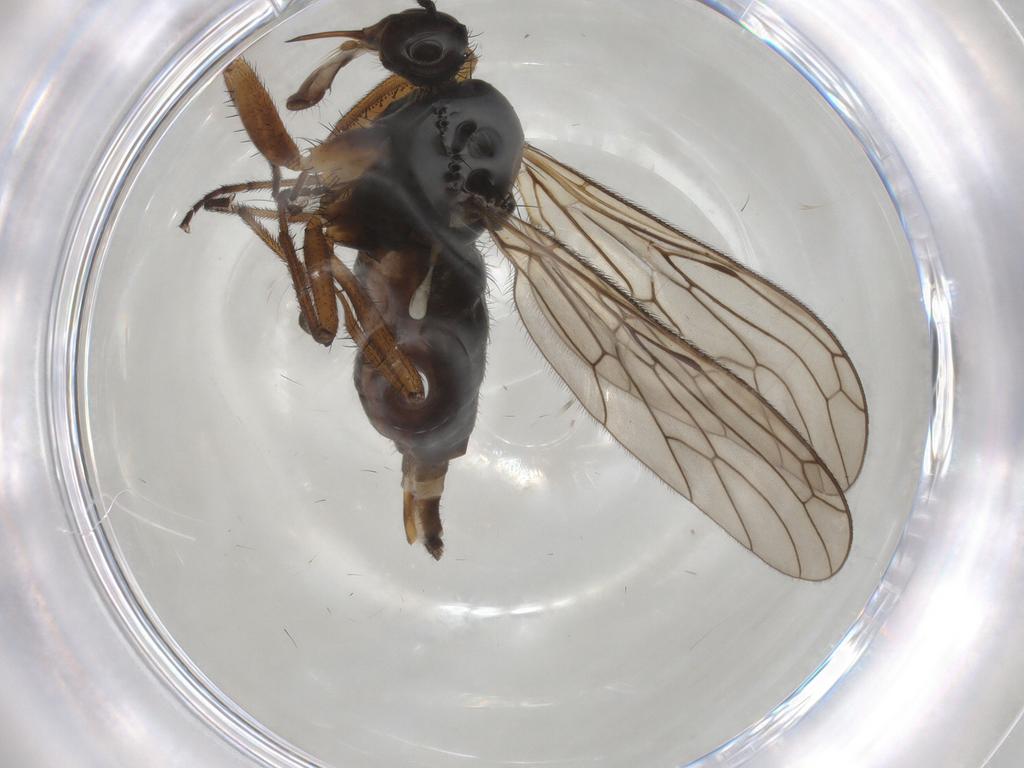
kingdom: Animalia
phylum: Arthropoda
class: Insecta
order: Diptera
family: Empididae
